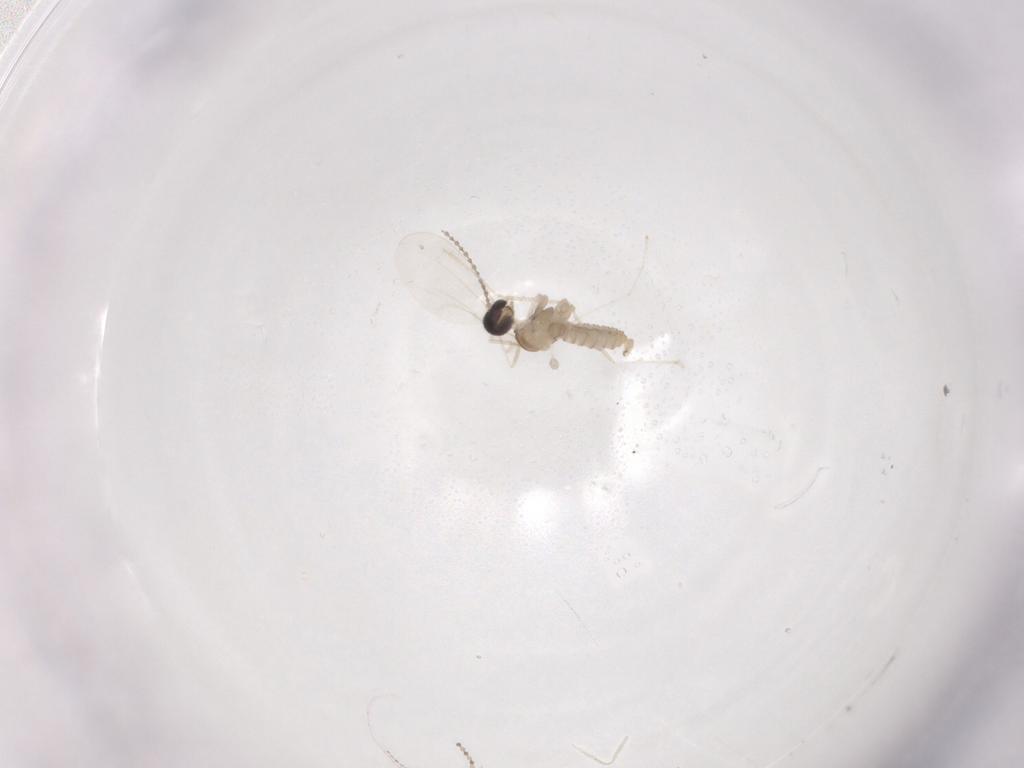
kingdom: Animalia
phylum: Arthropoda
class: Insecta
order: Diptera
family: Cecidomyiidae
